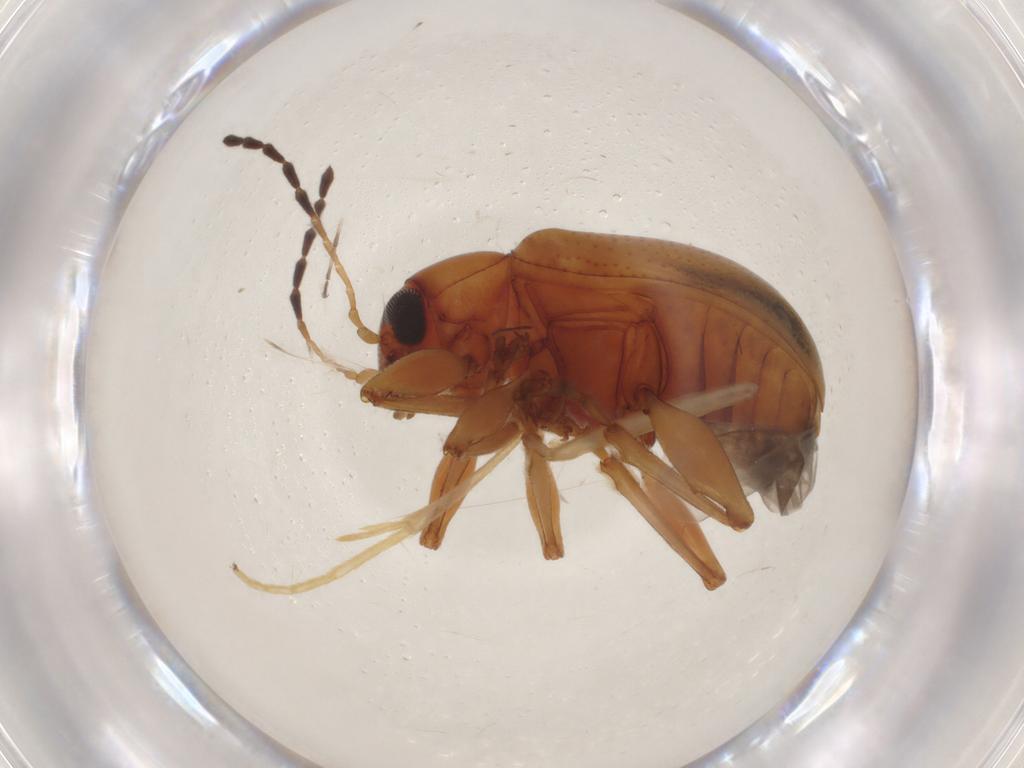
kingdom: Animalia
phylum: Arthropoda
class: Insecta
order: Coleoptera
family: Chrysomelidae
